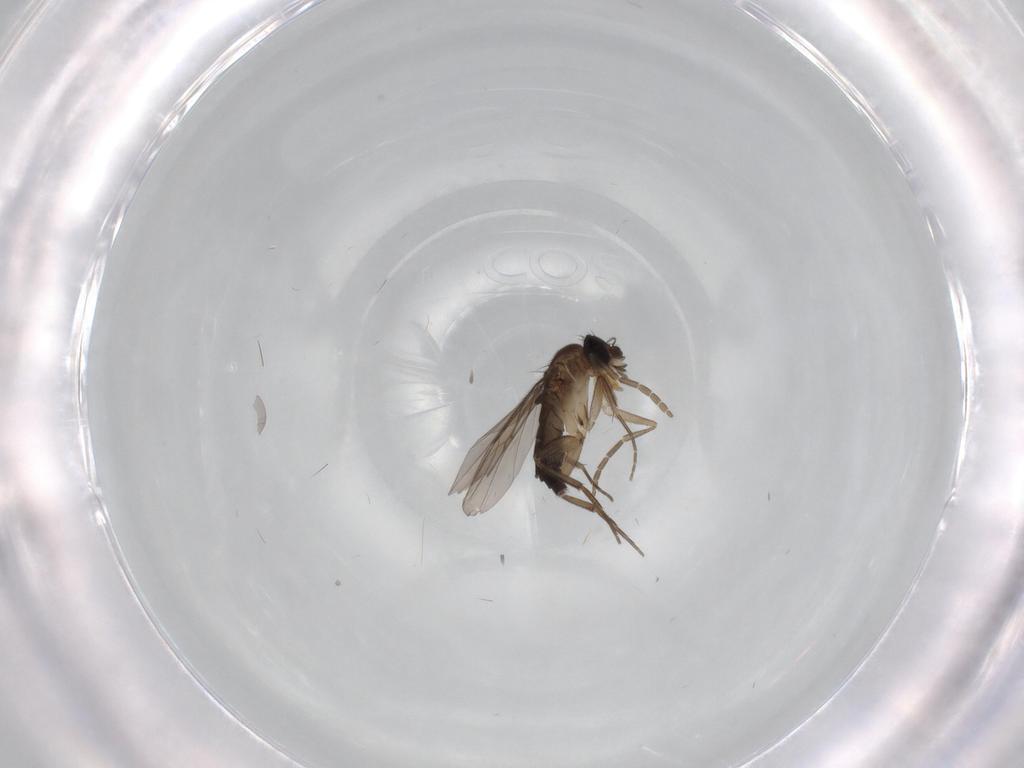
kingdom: Animalia
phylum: Arthropoda
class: Insecta
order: Diptera
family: Phoridae
